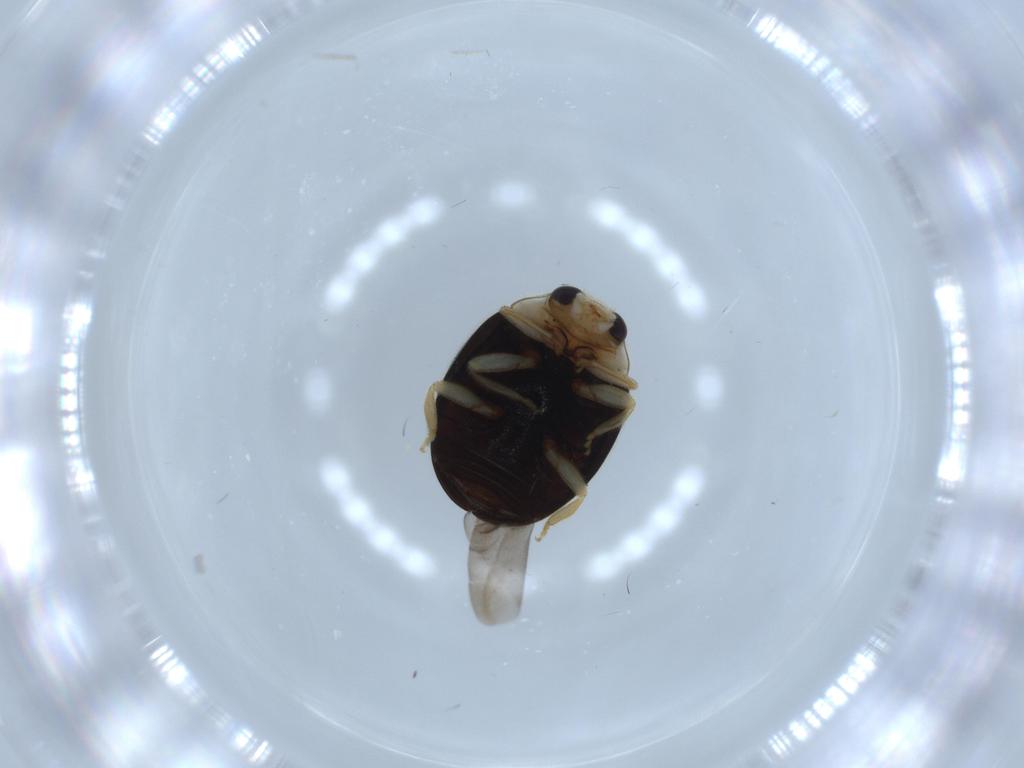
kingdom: Animalia
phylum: Arthropoda
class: Insecta
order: Coleoptera
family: Coccinellidae
